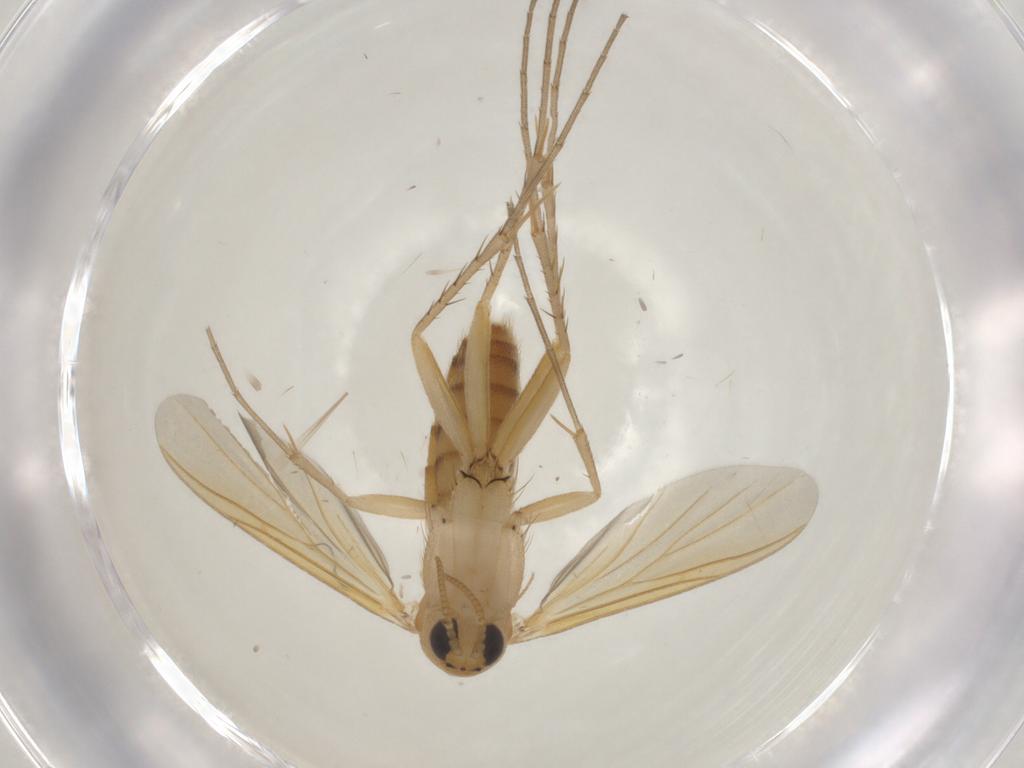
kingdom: Animalia
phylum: Arthropoda
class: Insecta
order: Diptera
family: Mycetophilidae
